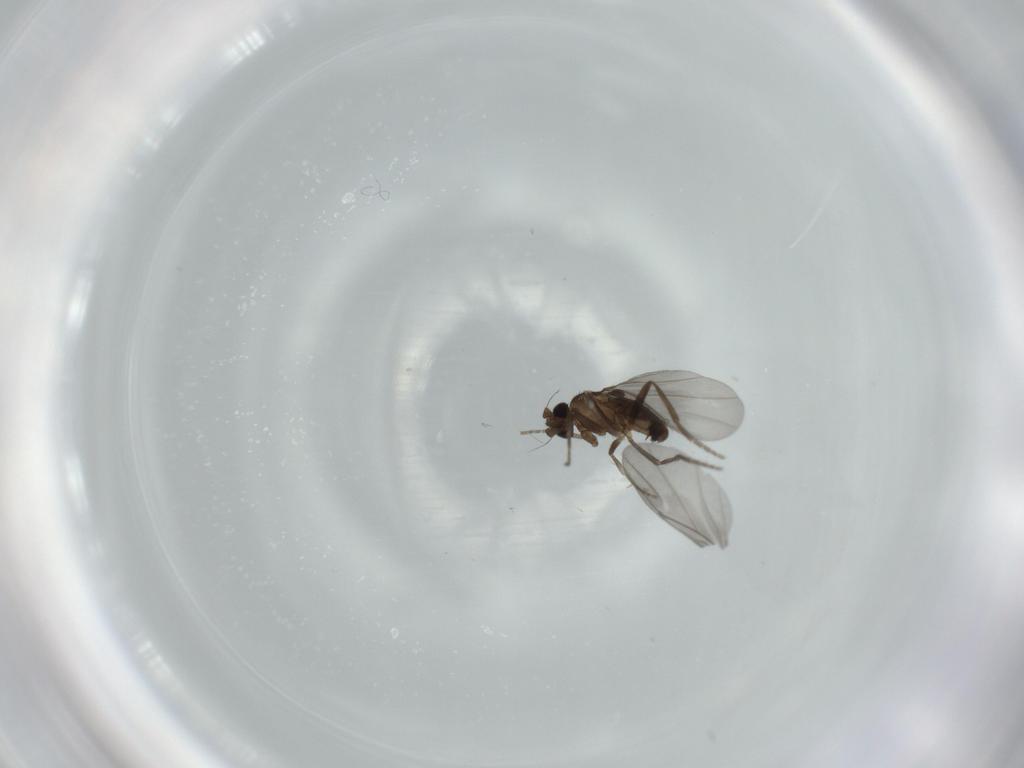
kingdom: Animalia
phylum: Arthropoda
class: Insecta
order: Diptera
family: Phoridae
